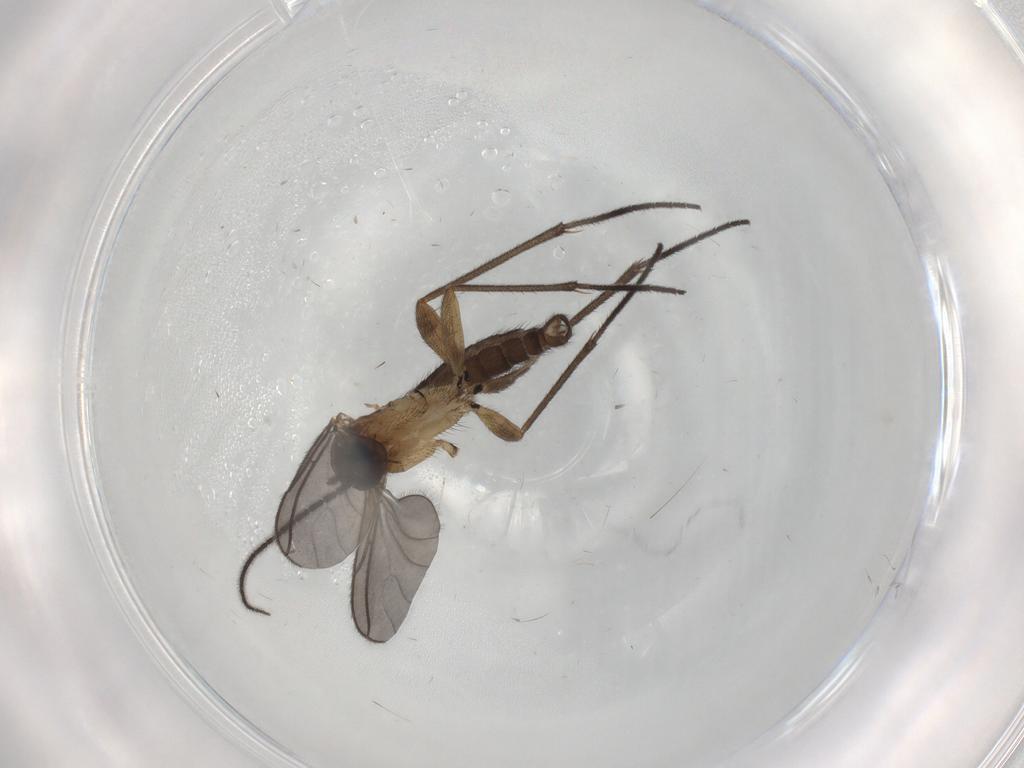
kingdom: Animalia
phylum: Arthropoda
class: Insecta
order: Diptera
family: Sciaridae
